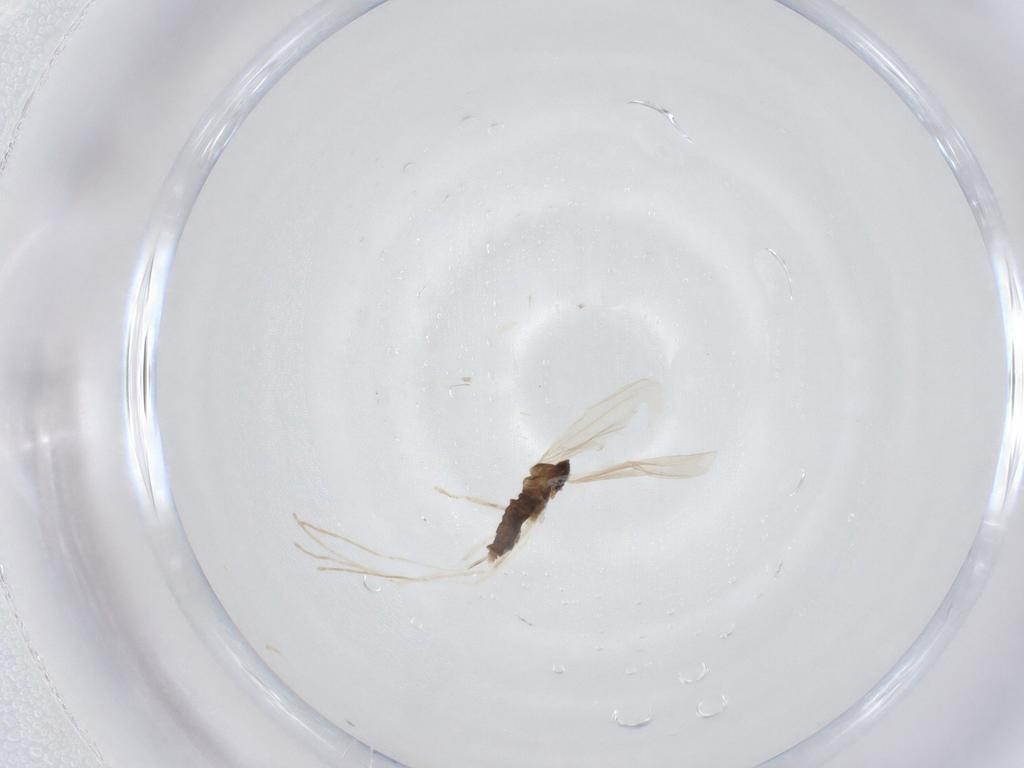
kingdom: Animalia
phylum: Arthropoda
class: Insecta
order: Diptera
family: Cecidomyiidae
